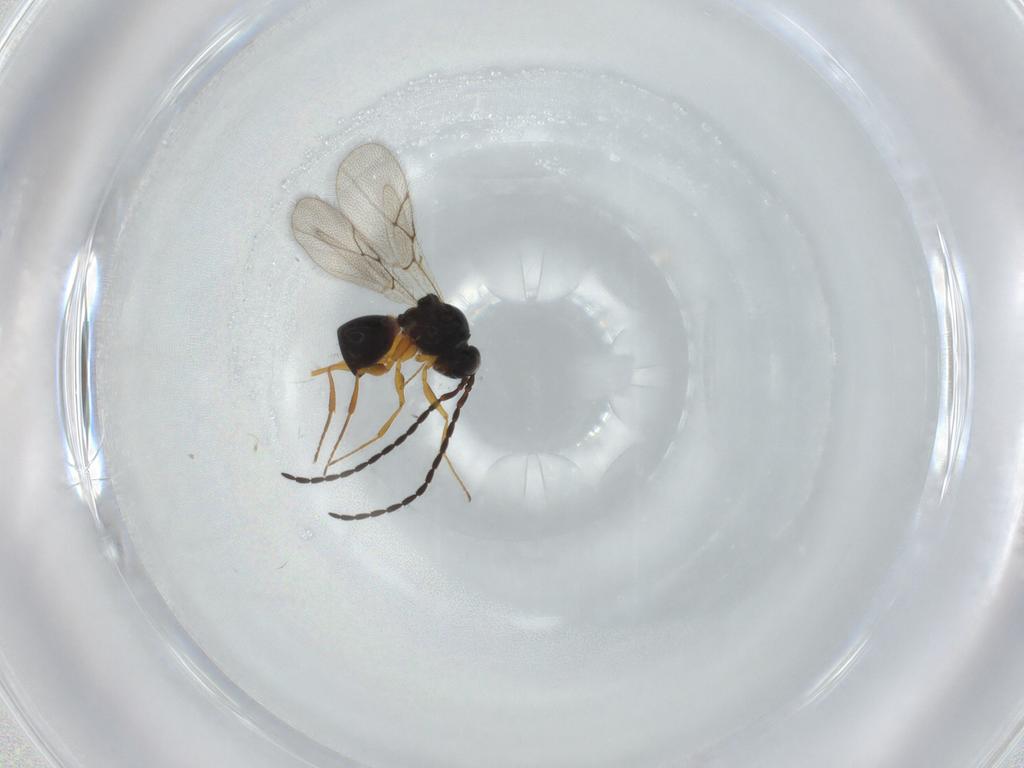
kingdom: Animalia
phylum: Arthropoda
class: Insecta
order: Hymenoptera
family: Figitidae
